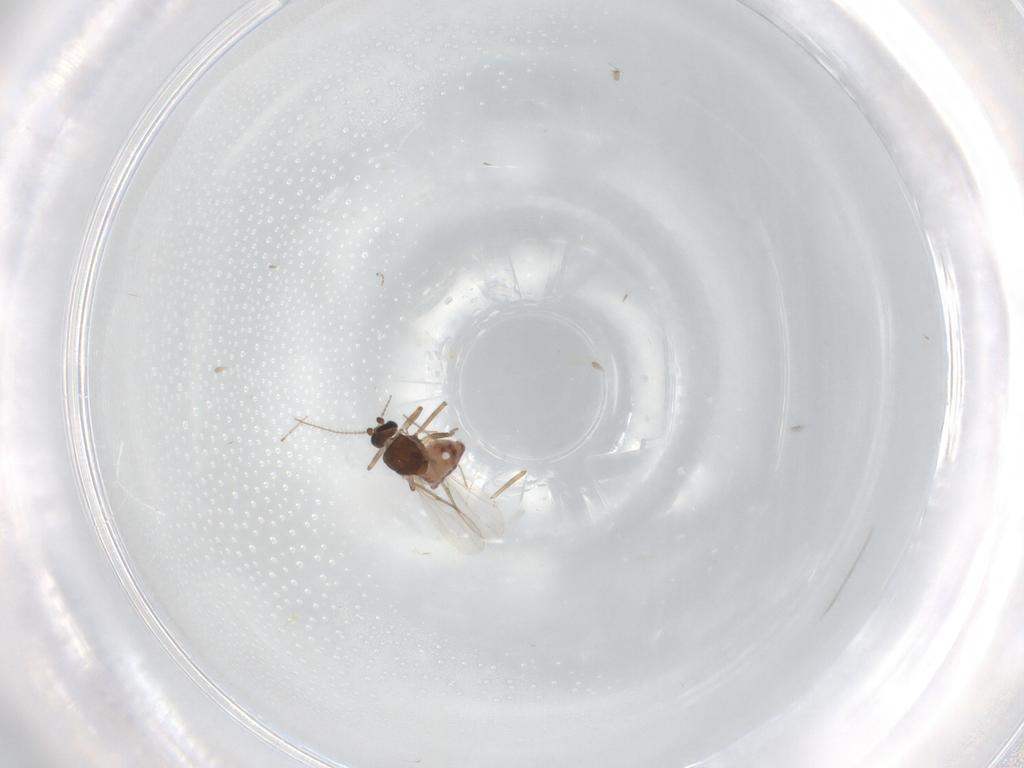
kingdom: Animalia
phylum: Arthropoda
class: Insecta
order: Diptera
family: Ceratopogonidae
